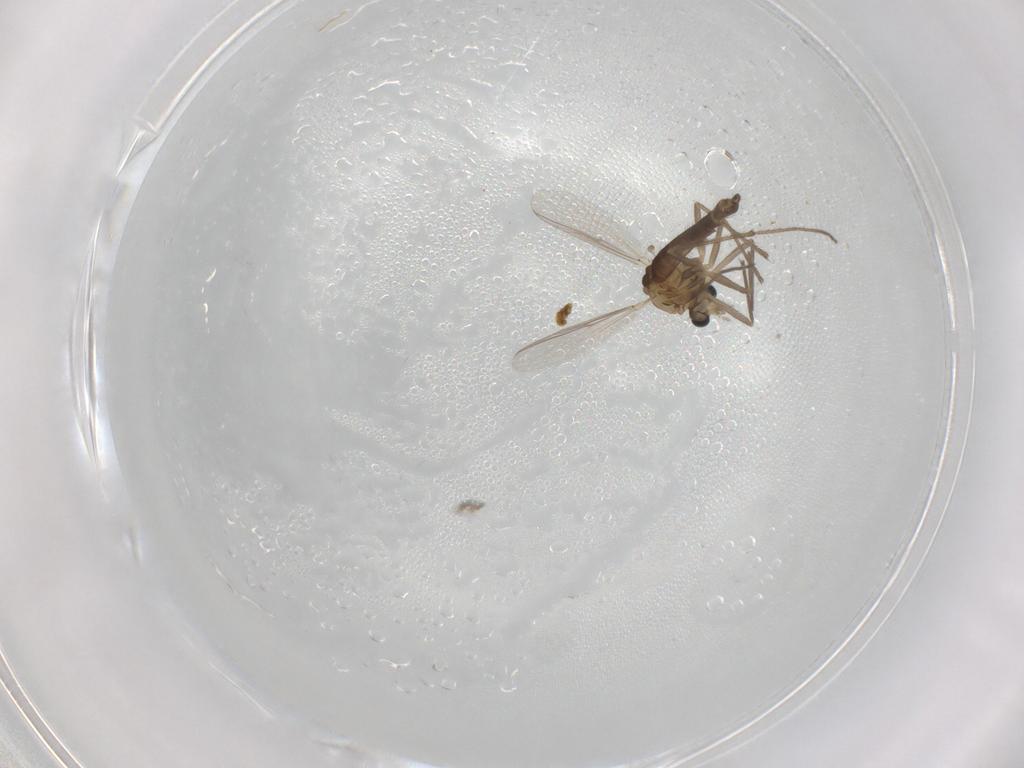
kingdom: Animalia
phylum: Arthropoda
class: Insecta
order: Diptera
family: Chironomidae
